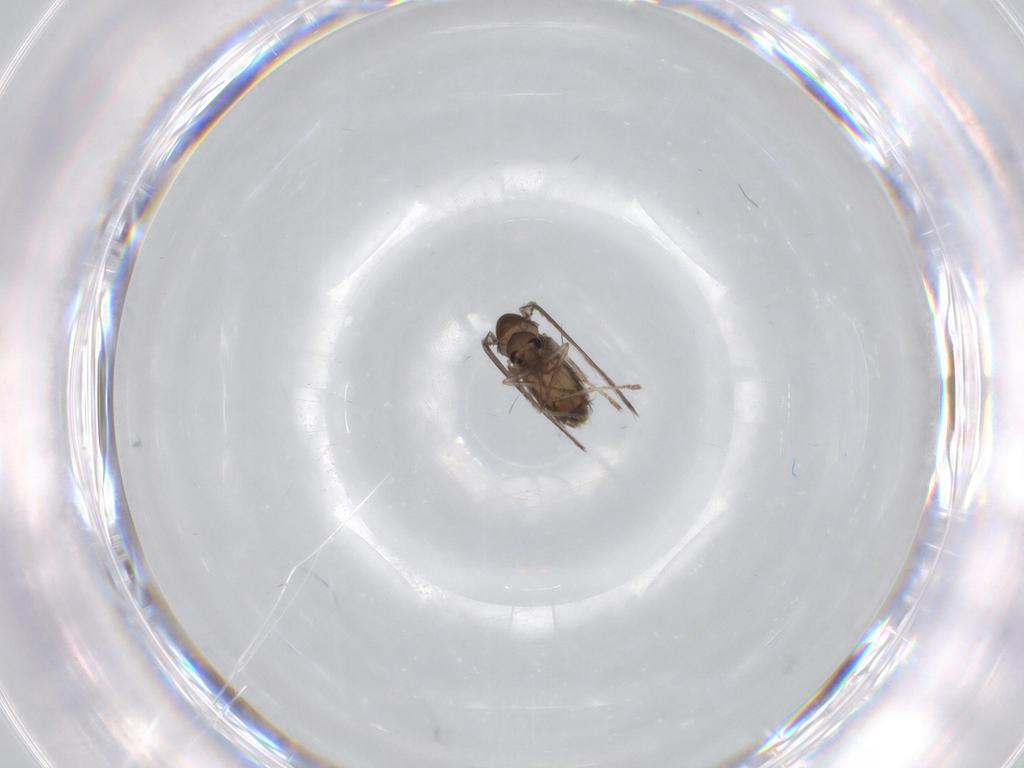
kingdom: Animalia
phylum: Arthropoda
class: Insecta
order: Diptera
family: Psychodidae
